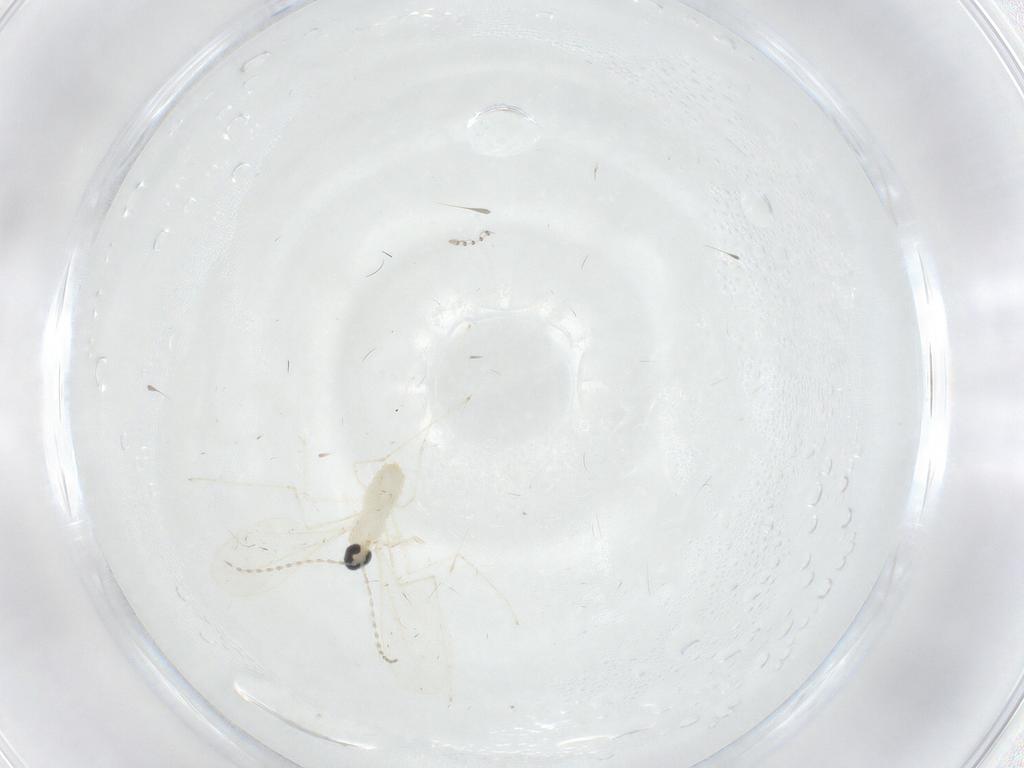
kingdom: Animalia
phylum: Arthropoda
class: Insecta
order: Diptera
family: Cecidomyiidae
